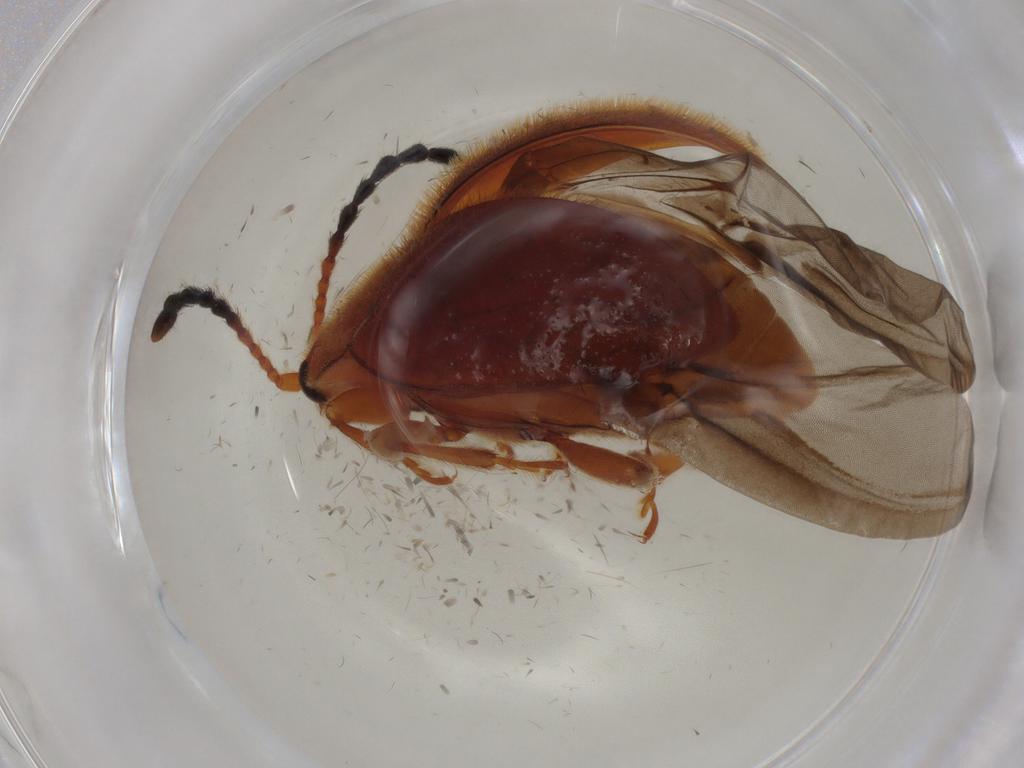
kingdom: Animalia
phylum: Arthropoda
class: Insecta
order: Coleoptera
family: Endomychidae
